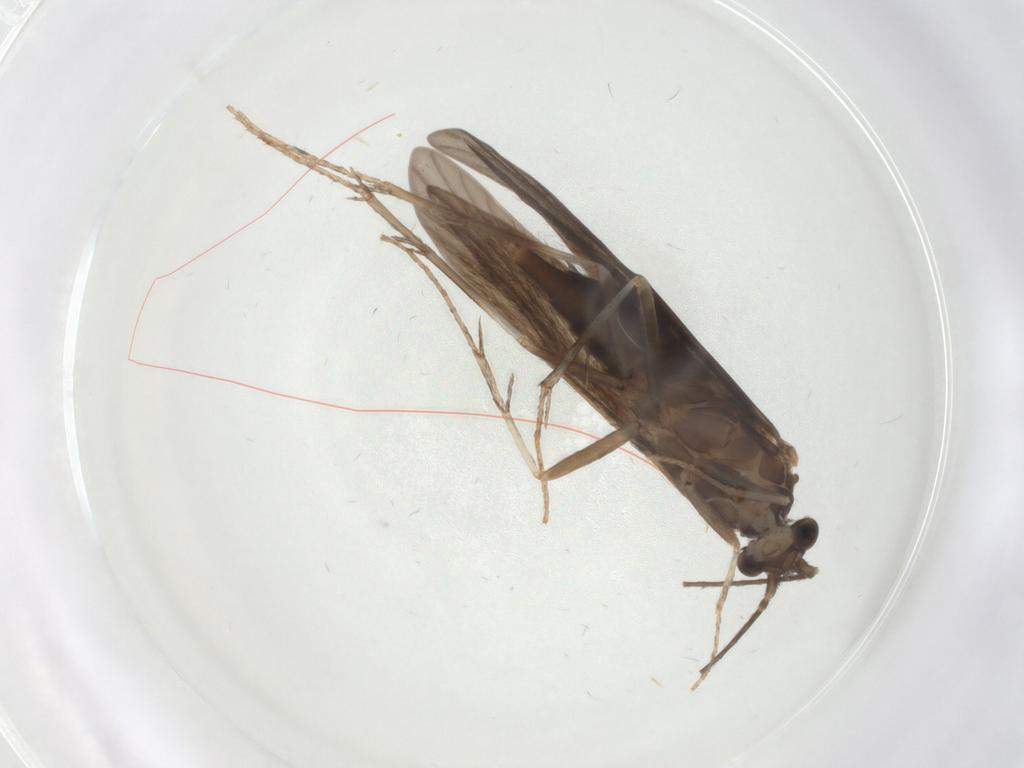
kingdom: Animalia
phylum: Arthropoda
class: Insecta
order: Trichoptera
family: Xiphocentronidae
